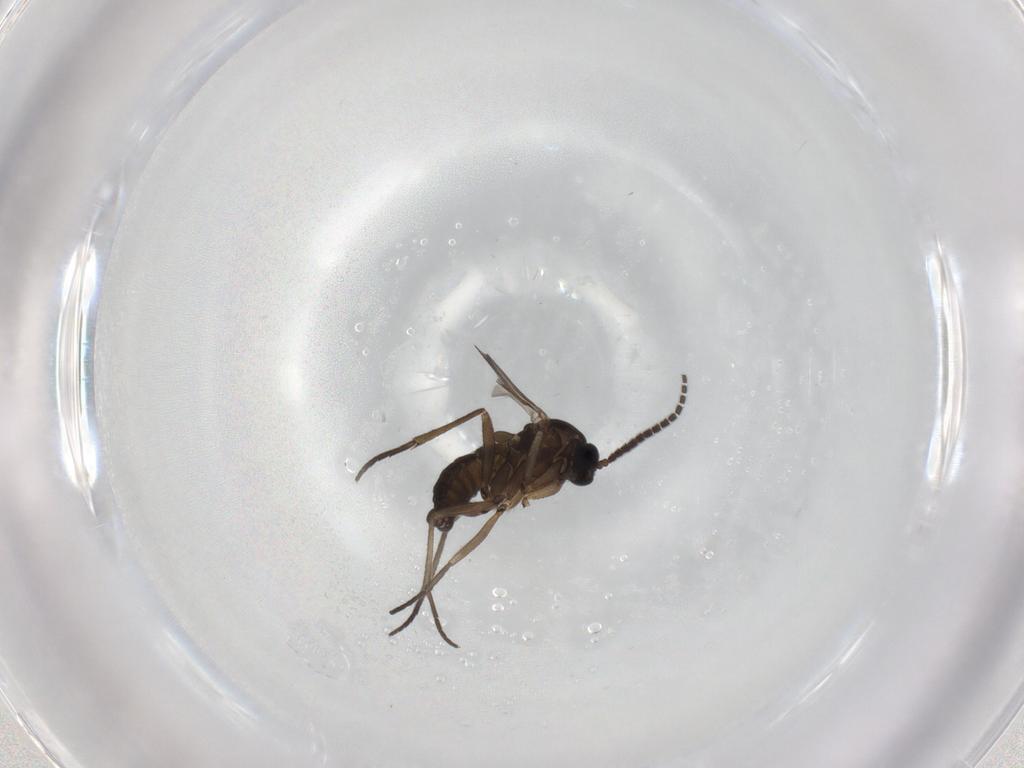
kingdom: Animalia
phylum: Arthropoda
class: Insecta
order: Diptera
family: Sciaridae
